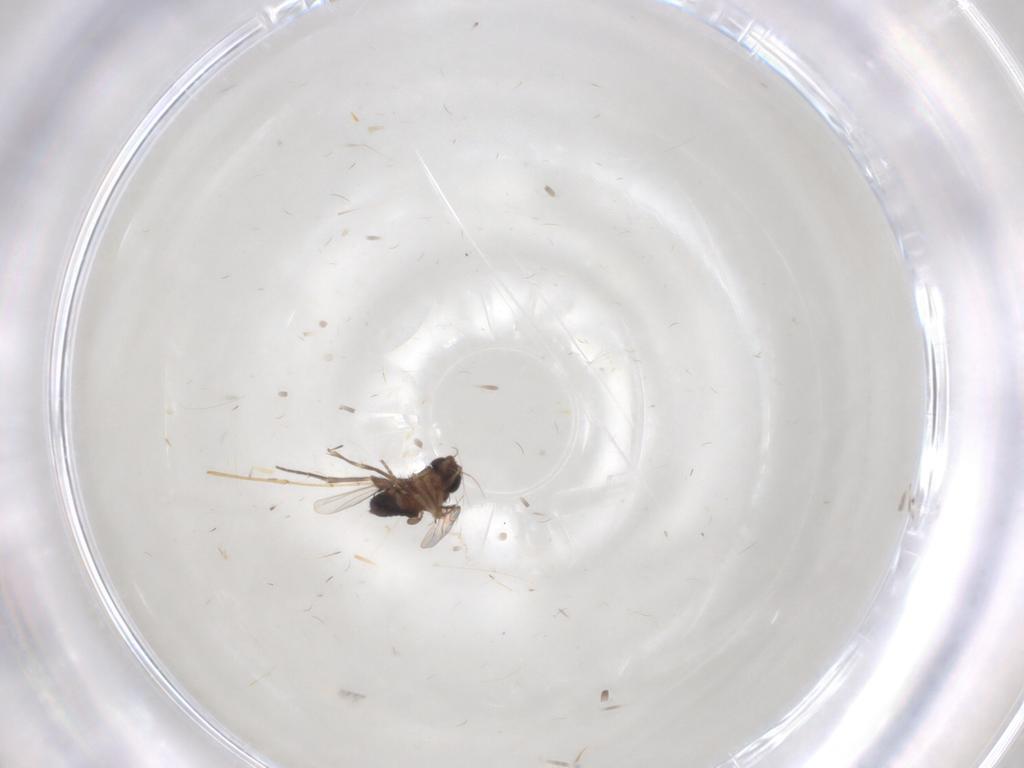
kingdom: Animalia
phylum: Arthropoda
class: Insecta
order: Diptera
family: Psychodidae
